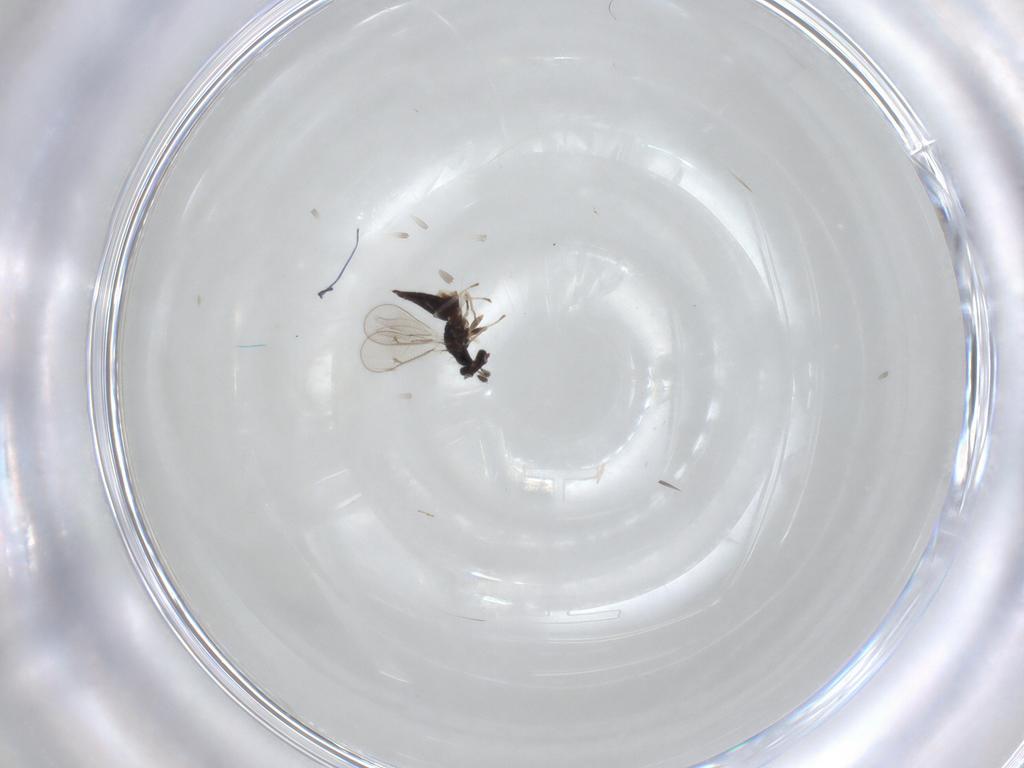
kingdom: Animalia
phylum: Arthropoda
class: Insecta
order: Hymenoptera
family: Eulophidae
